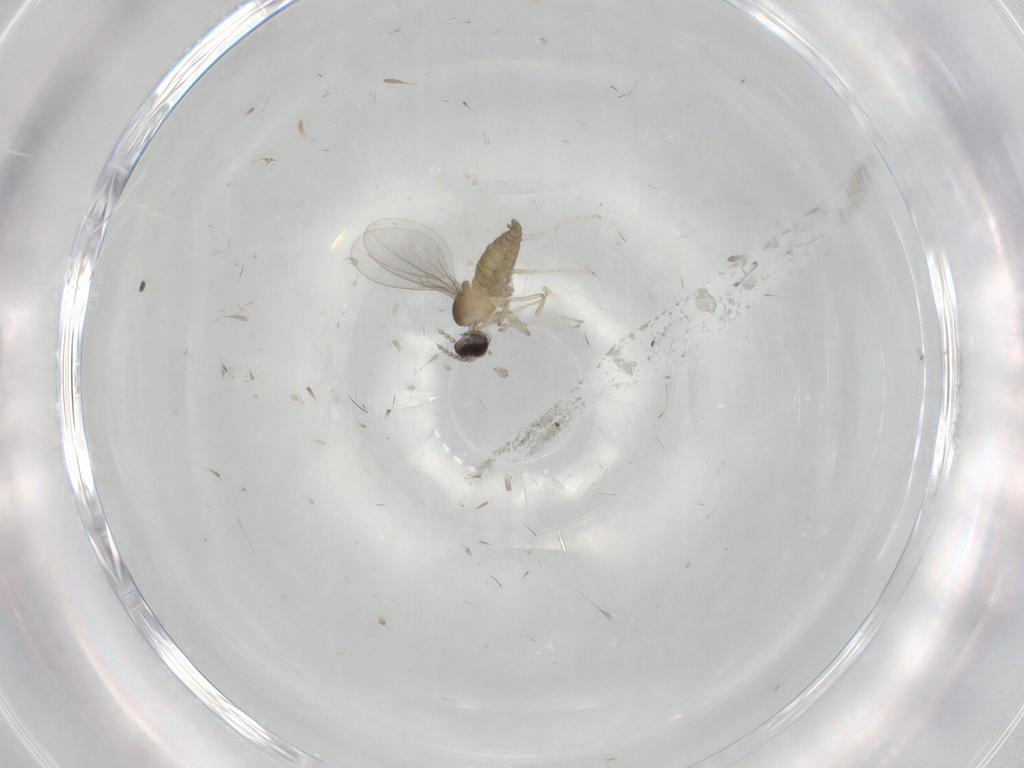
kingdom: Animalia
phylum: Arthropoda
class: Insecta
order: Diptera
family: Cecidomyiidae
